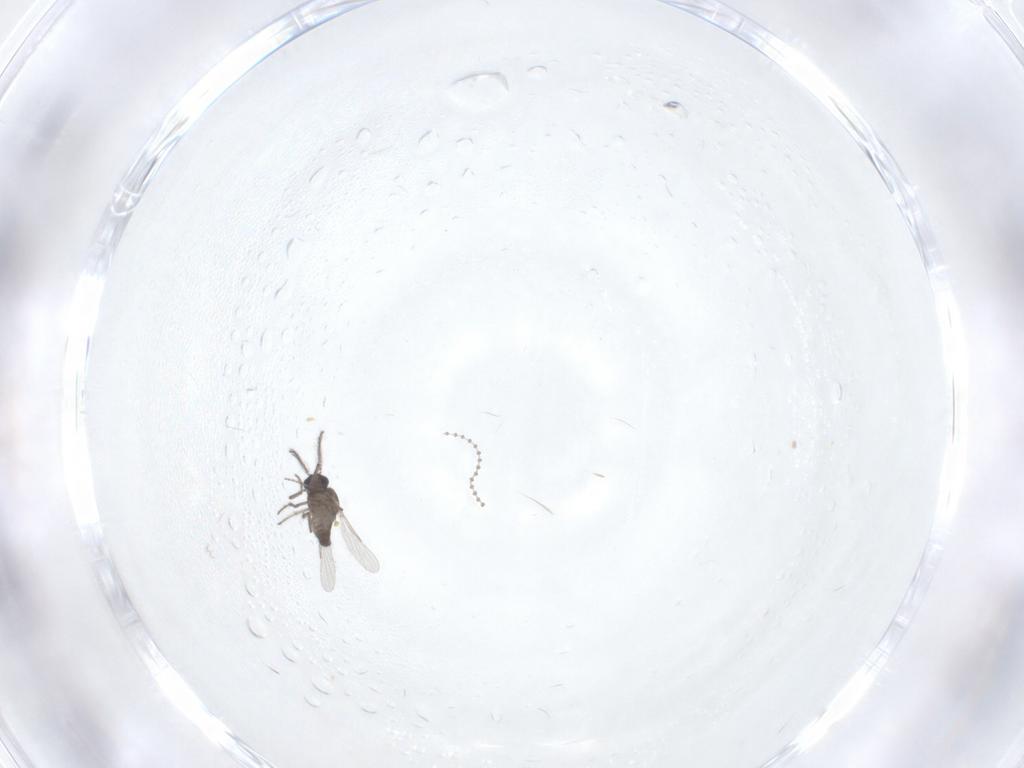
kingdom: Animalia
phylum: Arthropoda
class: Insecta
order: Diptera
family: Ceratopogonidae
